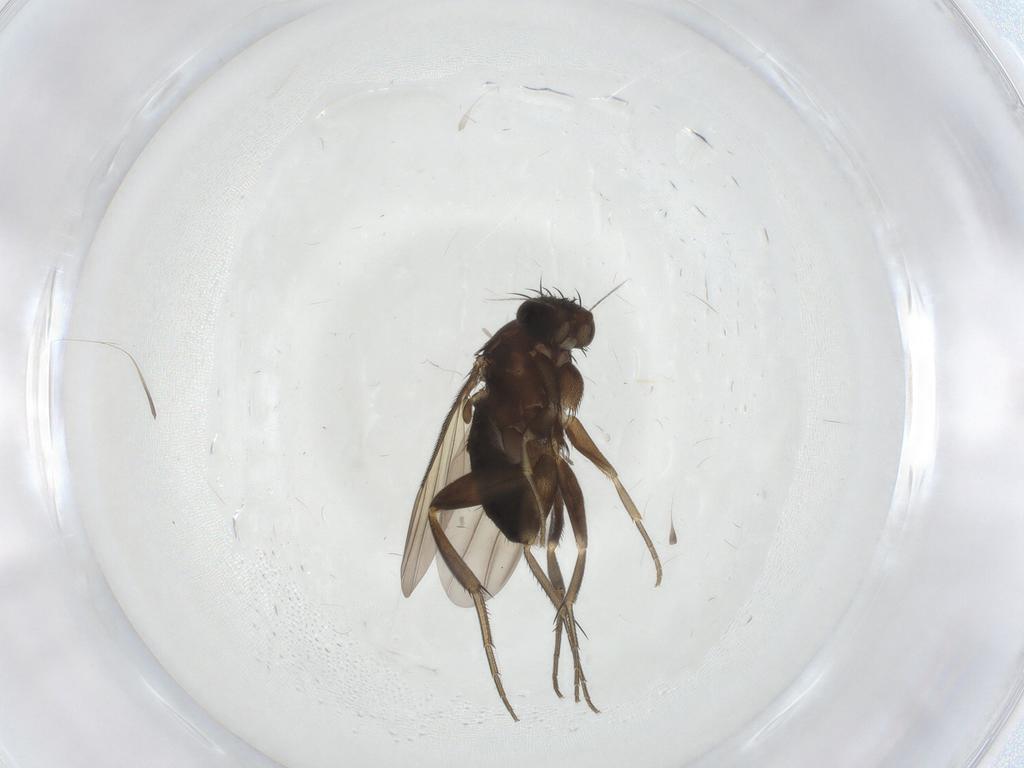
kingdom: Animalia
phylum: Arthropoda
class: Insecta
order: Diptera
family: Phoridae
